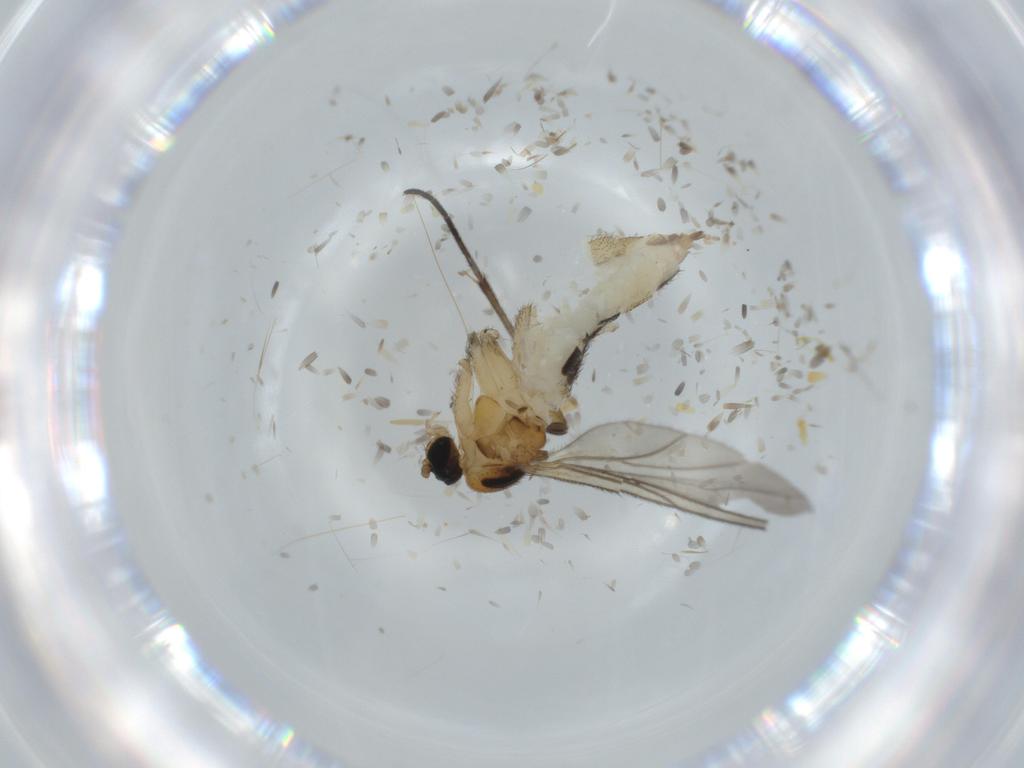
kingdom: Animalia
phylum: Arthropoda
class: Insecta
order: Diptera
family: Sciaridae
